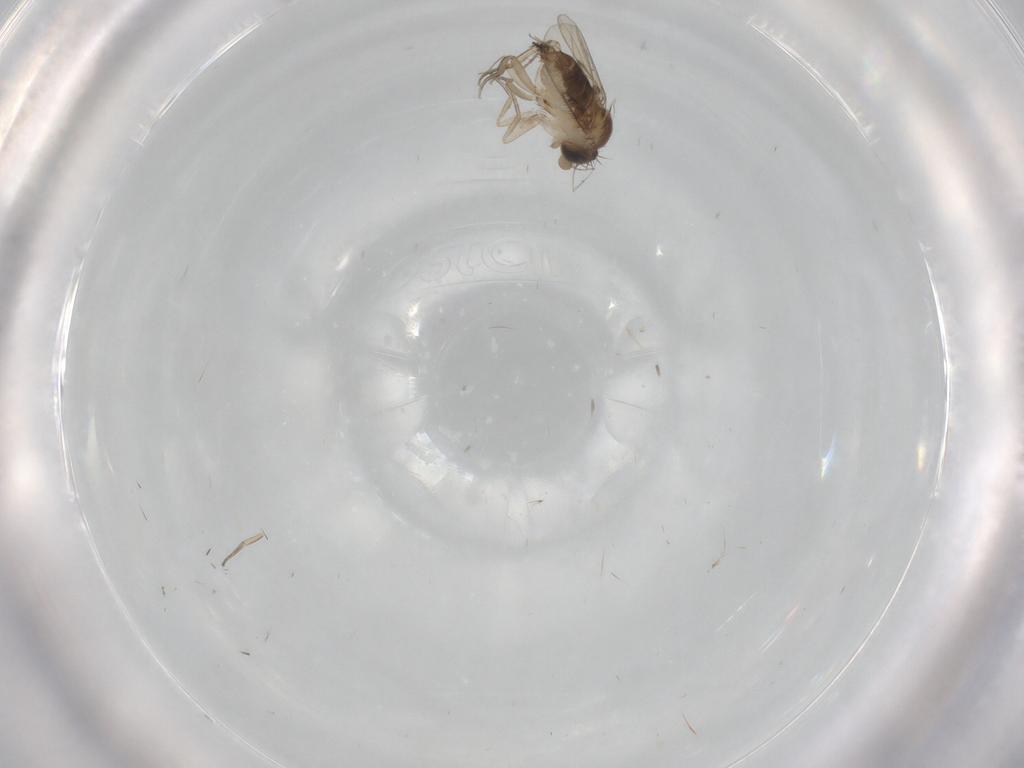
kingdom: Animalia
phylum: Arthropoda
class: Insecta
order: Diptera
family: Phoridae
